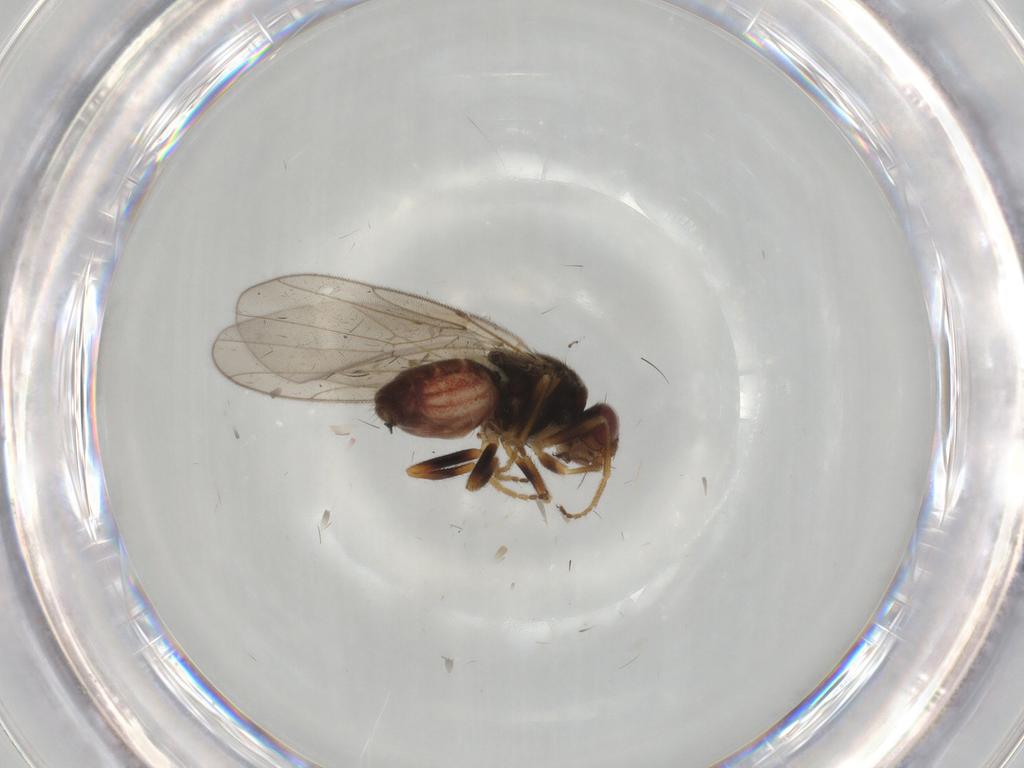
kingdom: Animalia
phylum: Arthropoda
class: Insecta
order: Diptera
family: Chloropidae
